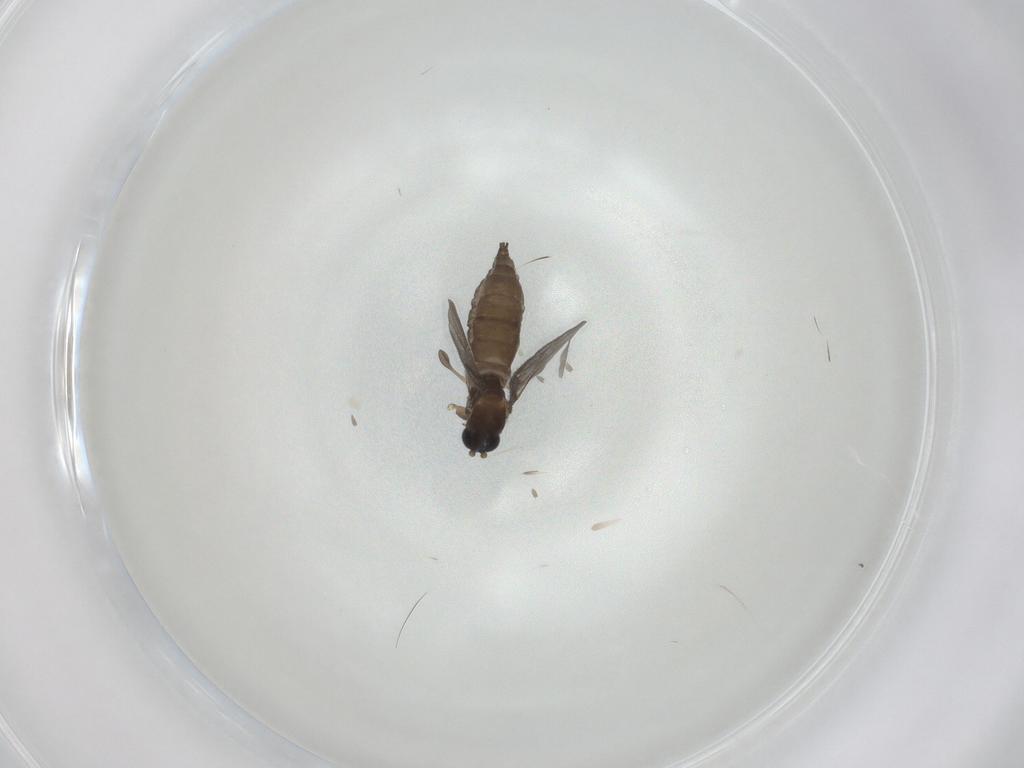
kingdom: Animalia
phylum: Arthropoda
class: Insecta
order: Diptera
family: Sciaridae
